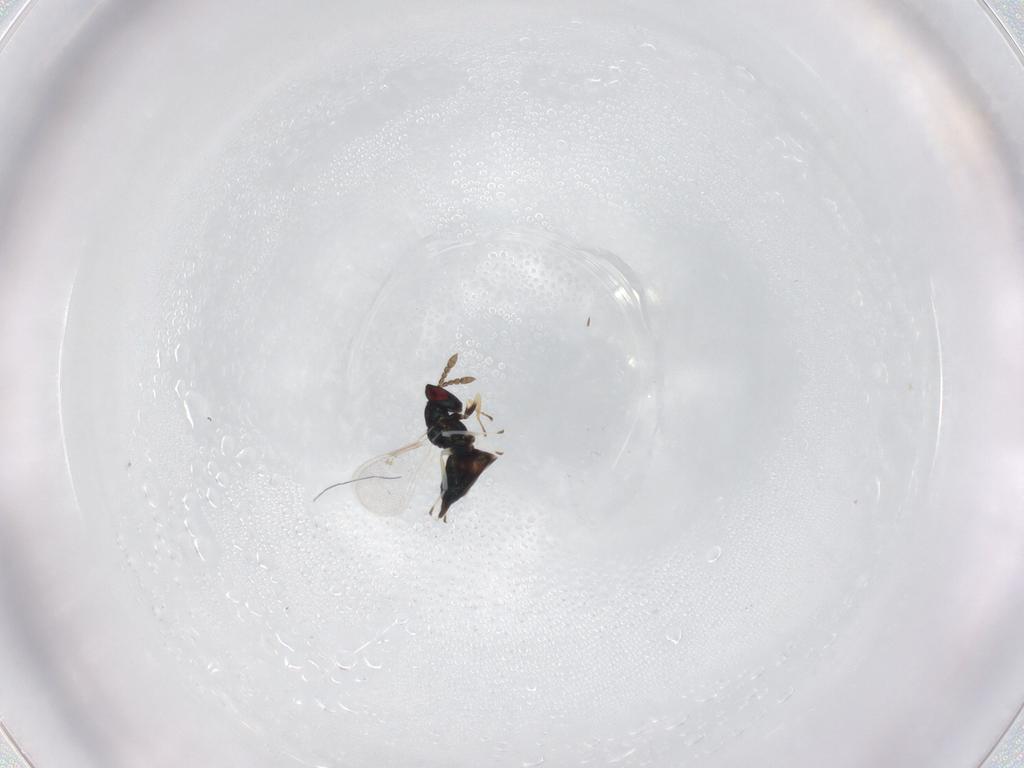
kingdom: Animalia
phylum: Arthropoda
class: Insecta
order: Hymenoptera
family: Eulophidae
